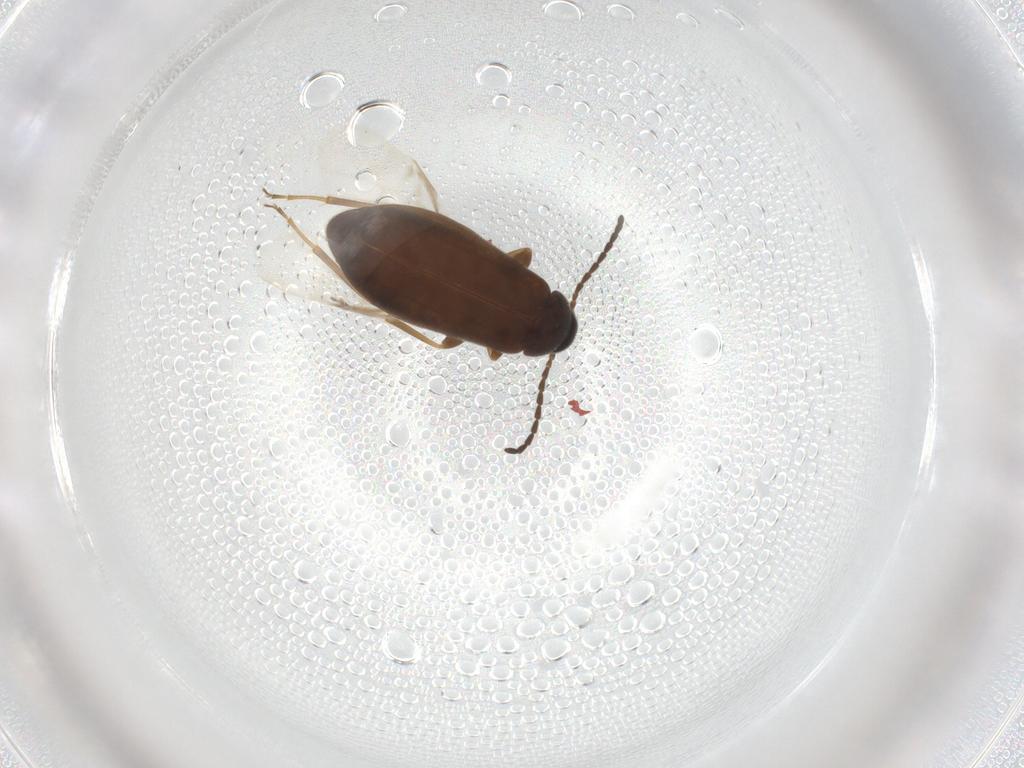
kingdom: Animalia
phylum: Arthropoda
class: Insecta
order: Coleoptera
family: Scraptiidae
